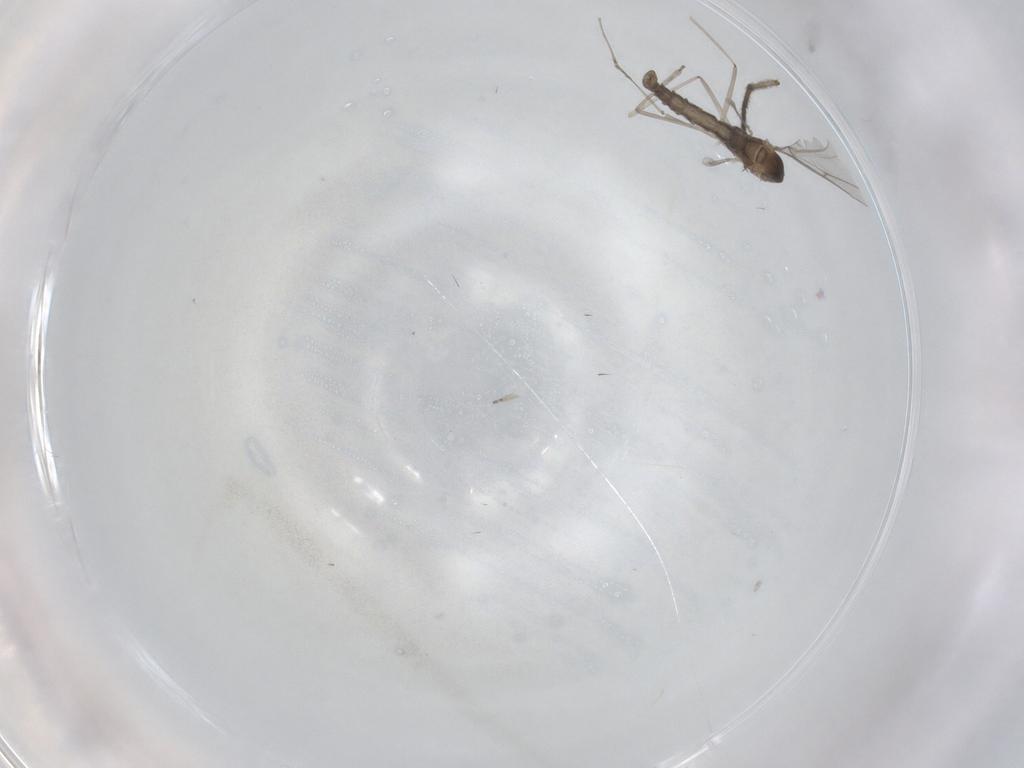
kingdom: Animalia
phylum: Arthropoda
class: Insecta
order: Diptera
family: Cecidomyiidae
